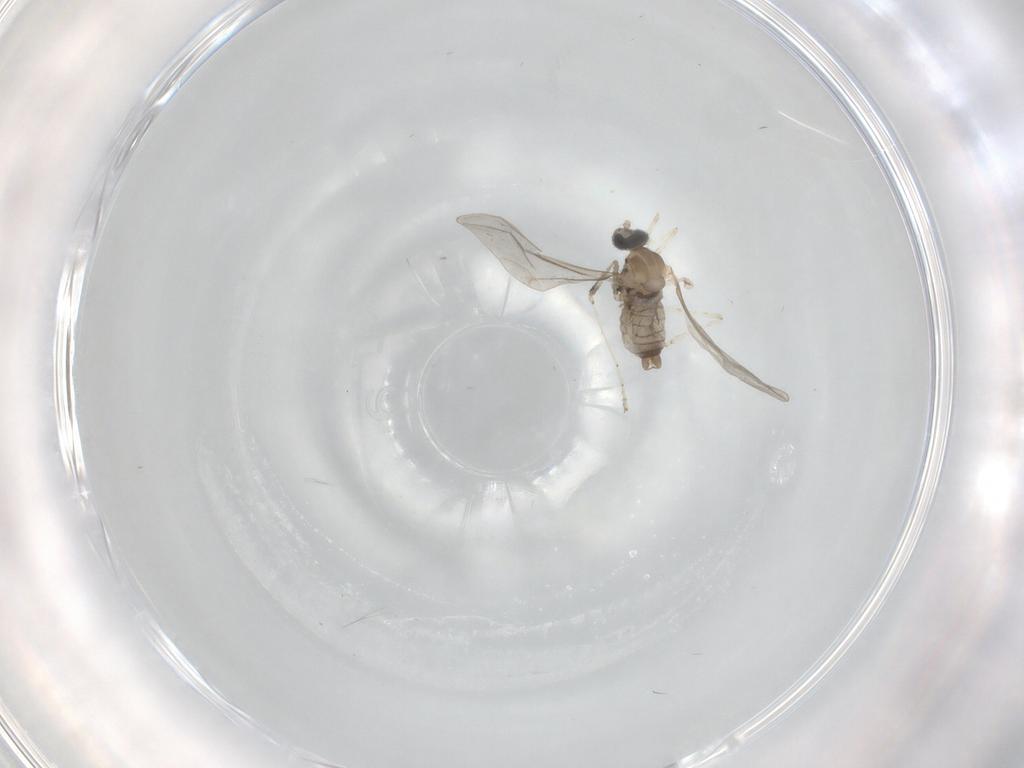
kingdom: Animalia
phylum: Arthropoda
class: Insecta
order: Diptera
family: Cecidomyiidae
